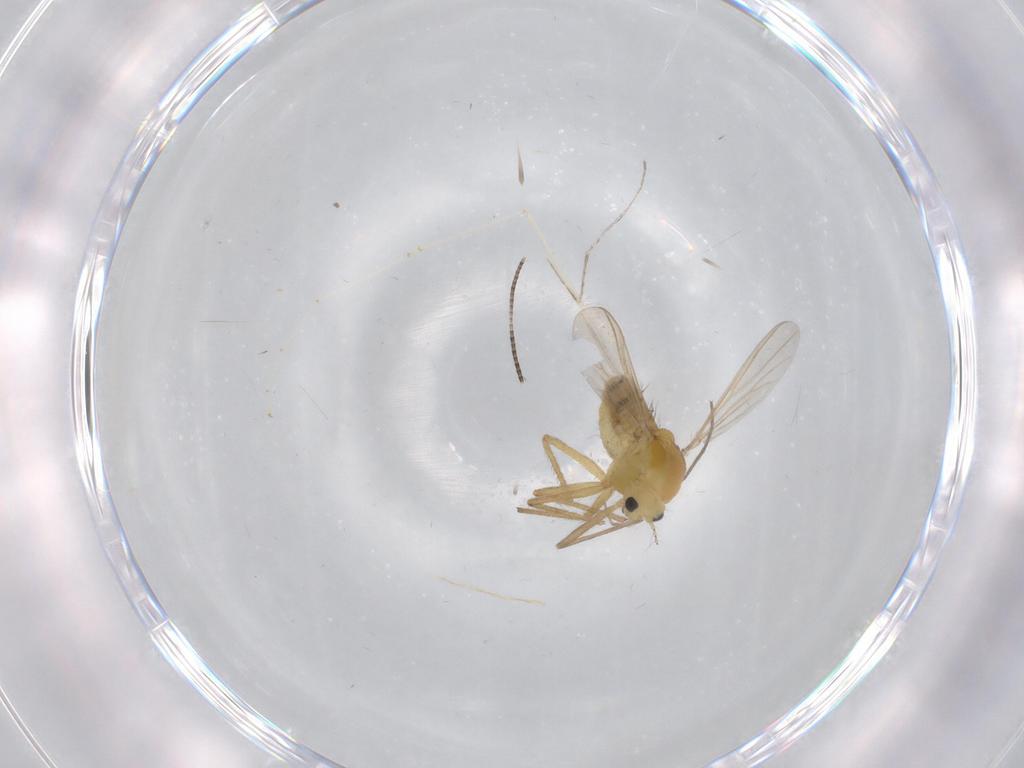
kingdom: Animalia
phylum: Arthropoda
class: Insecta
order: Diptera
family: Chironomidae
